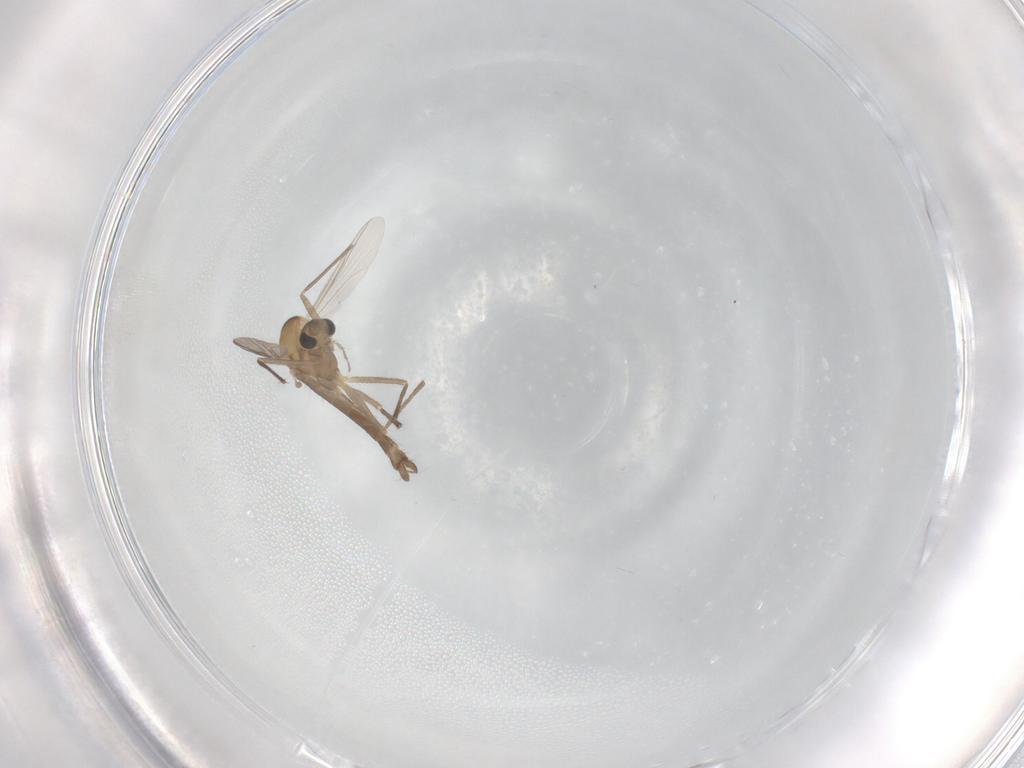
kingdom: Animalia
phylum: Arthropoda
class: Insecta
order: Diptera
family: Chironomidae
